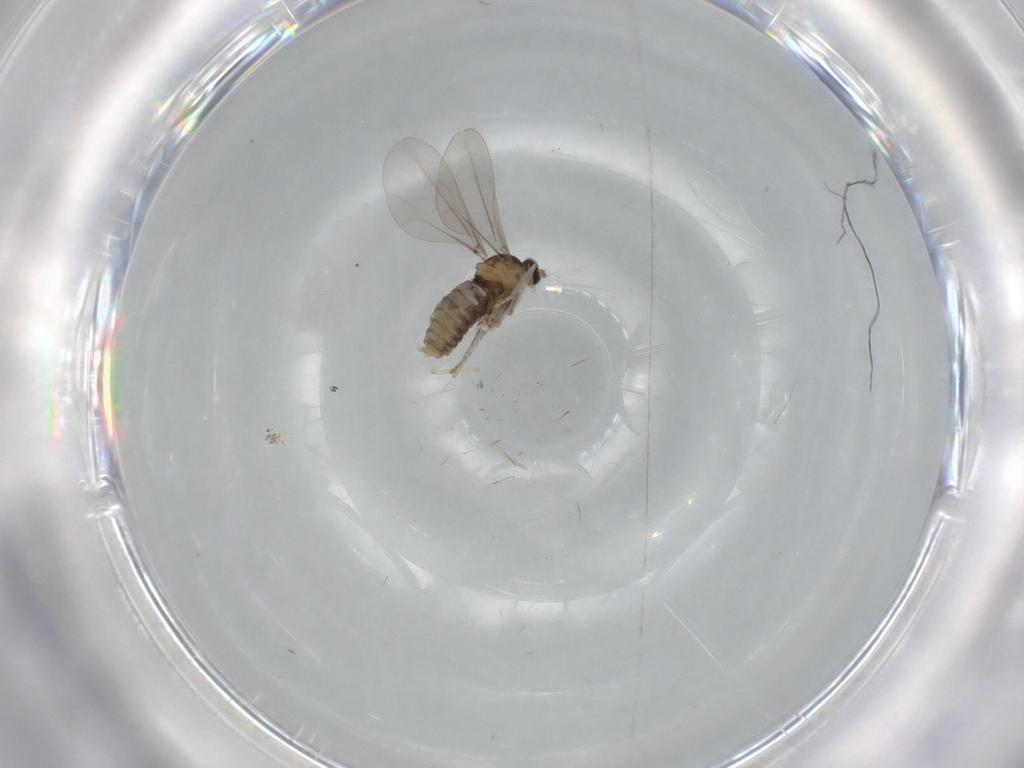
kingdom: Animalia
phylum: Arthropoda
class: Insecta
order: Diptera
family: Cecidomyiidae
